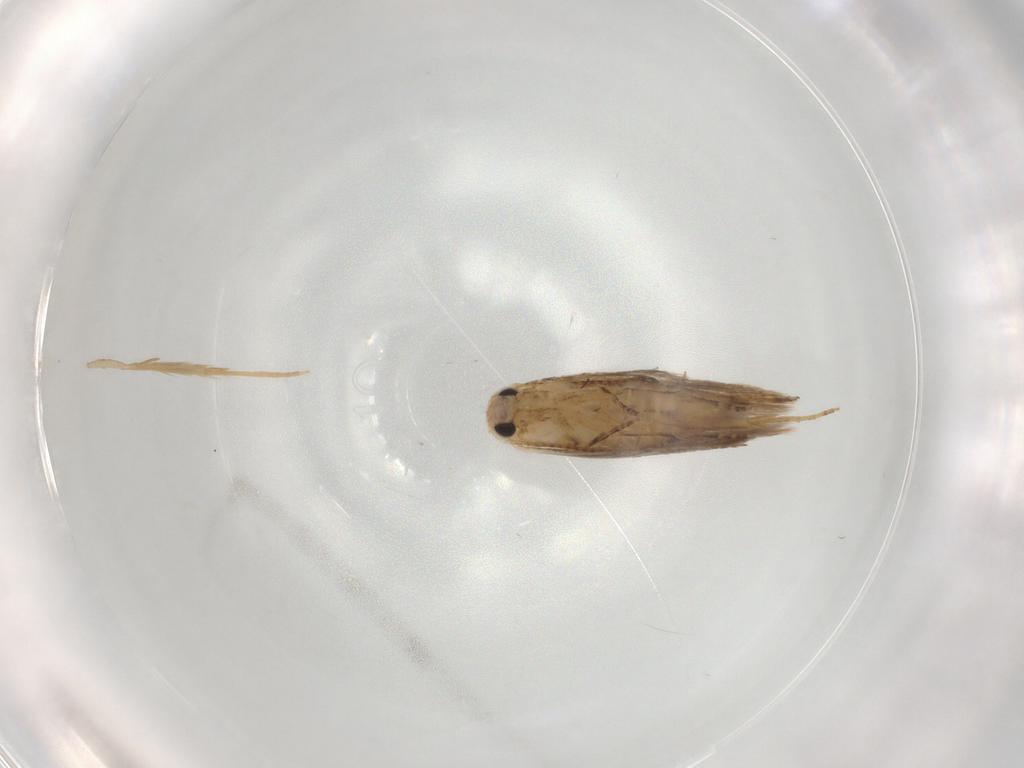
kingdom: Animalia
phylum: Arthropoda
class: Insecta
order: Lepidoptera
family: Bucculatricidae
